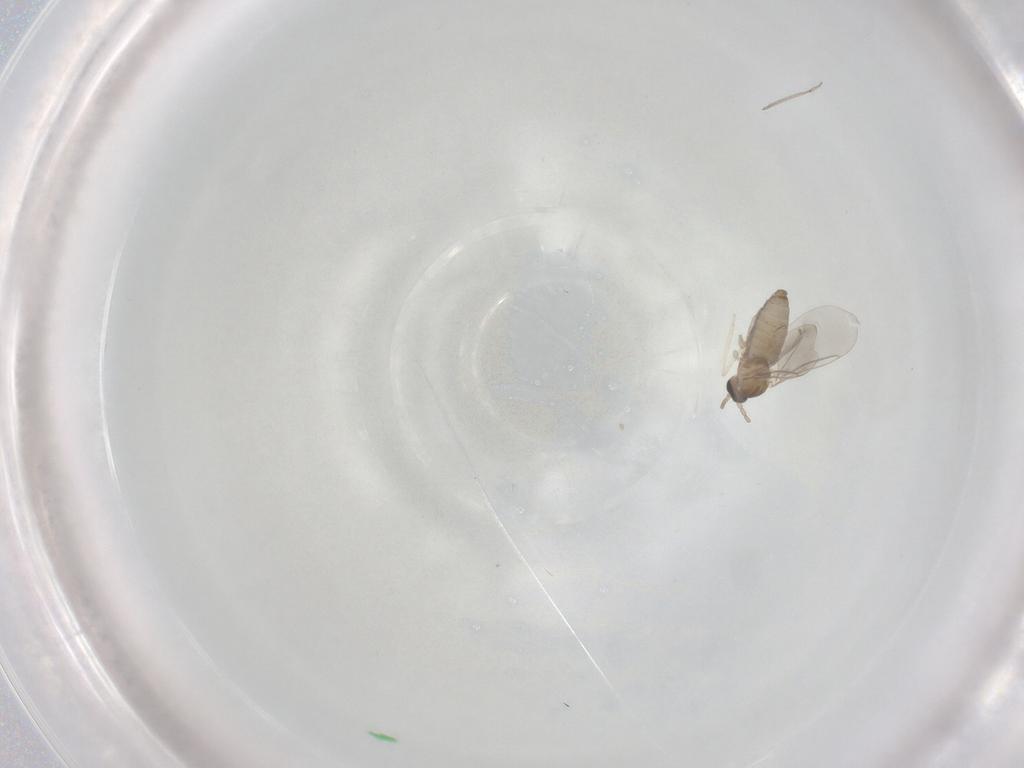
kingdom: Animalia
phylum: Arthropoda
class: Insecta
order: Diptera
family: Cecidomyiidae
